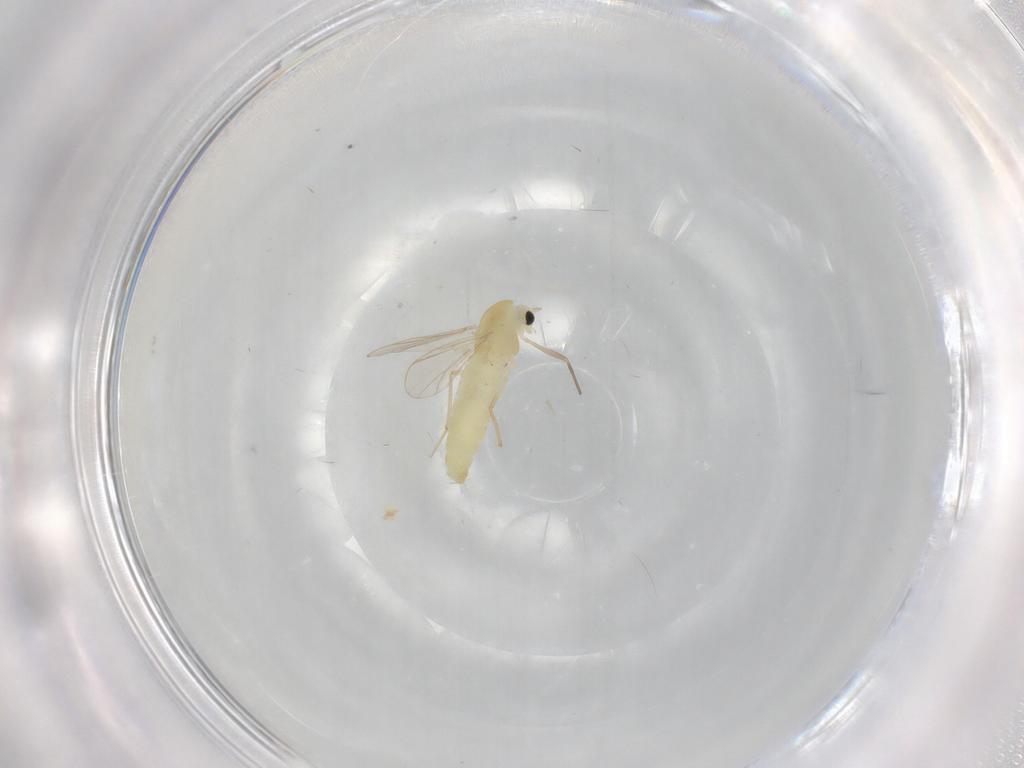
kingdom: Animalia
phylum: Arthropoda
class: Insecta
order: Diptera
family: Chironomidae
